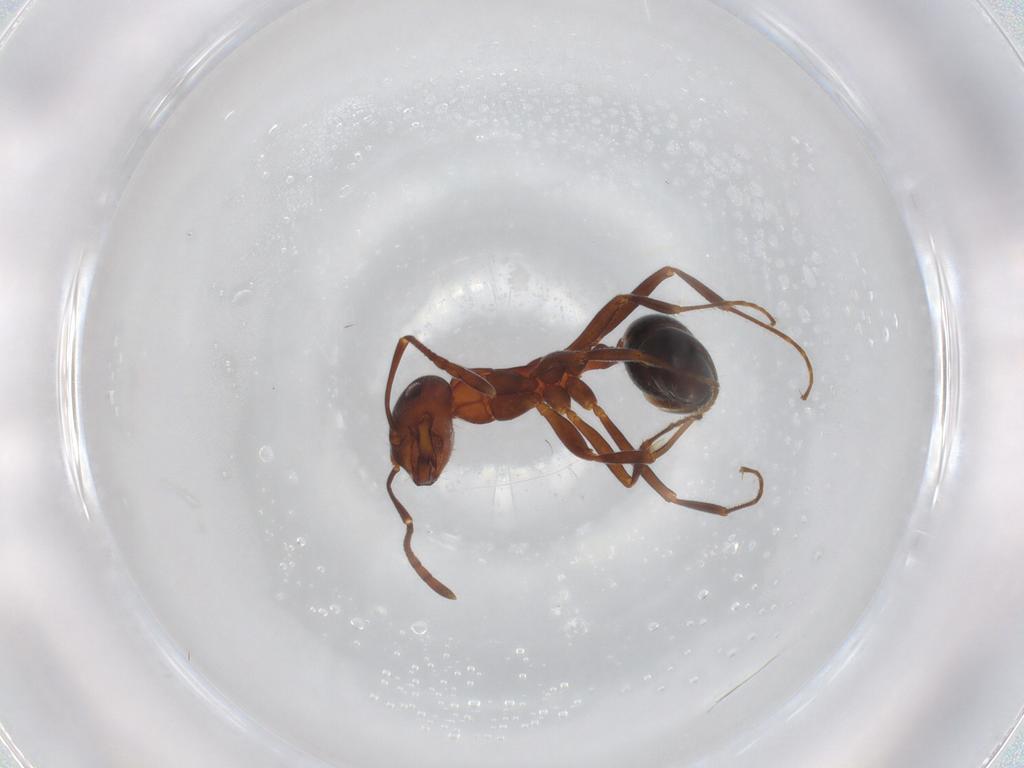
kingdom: Animalia
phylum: Arthropoda
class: Insecta
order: Hymenoptera
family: Formicidae
